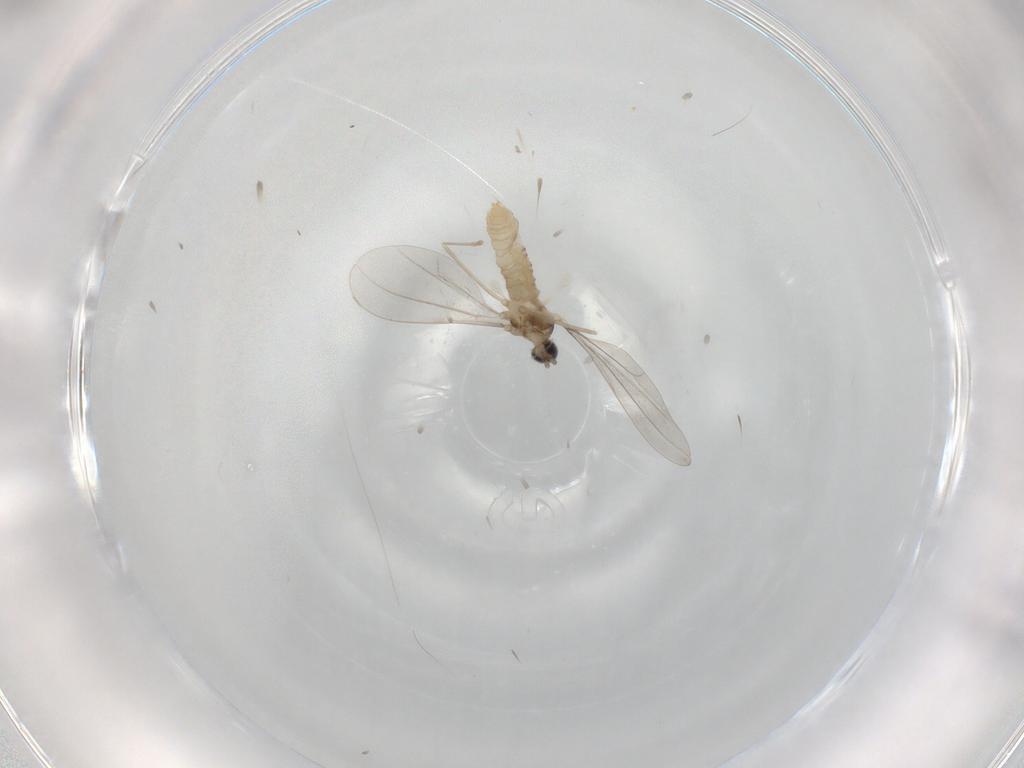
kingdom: Animalia
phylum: Arthropoda
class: Insecta
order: Diptera
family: Cecidomyiidae
